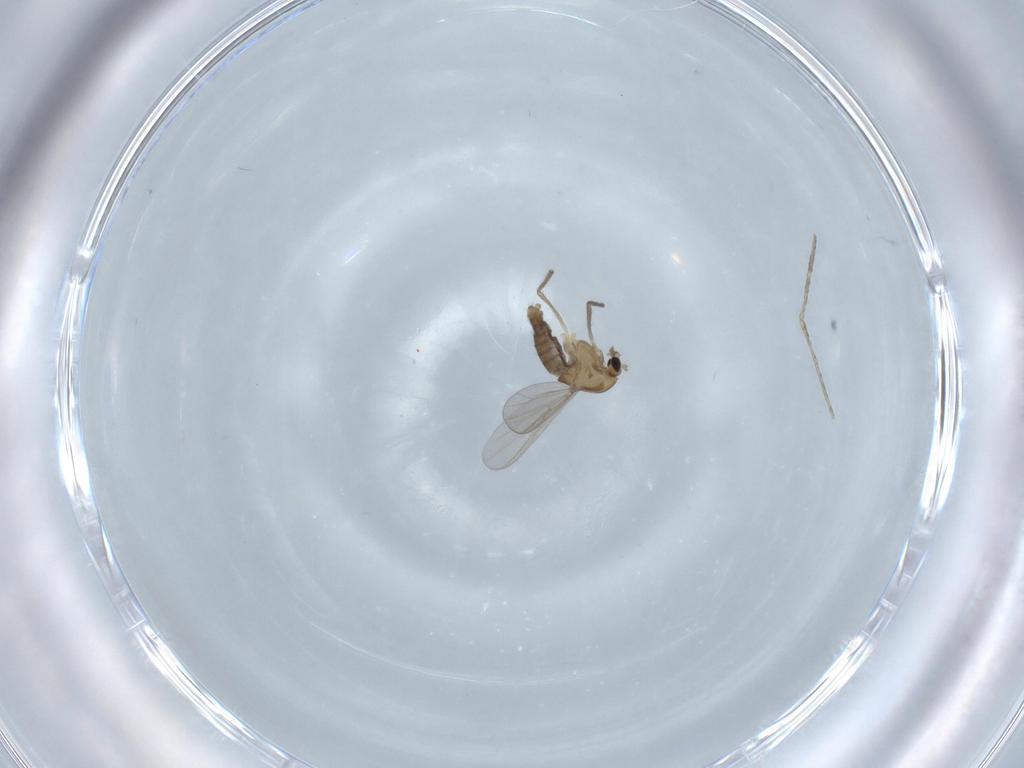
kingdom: Animalia
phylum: Arthropoda
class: Insecta
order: Diptera
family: Chironomidae
